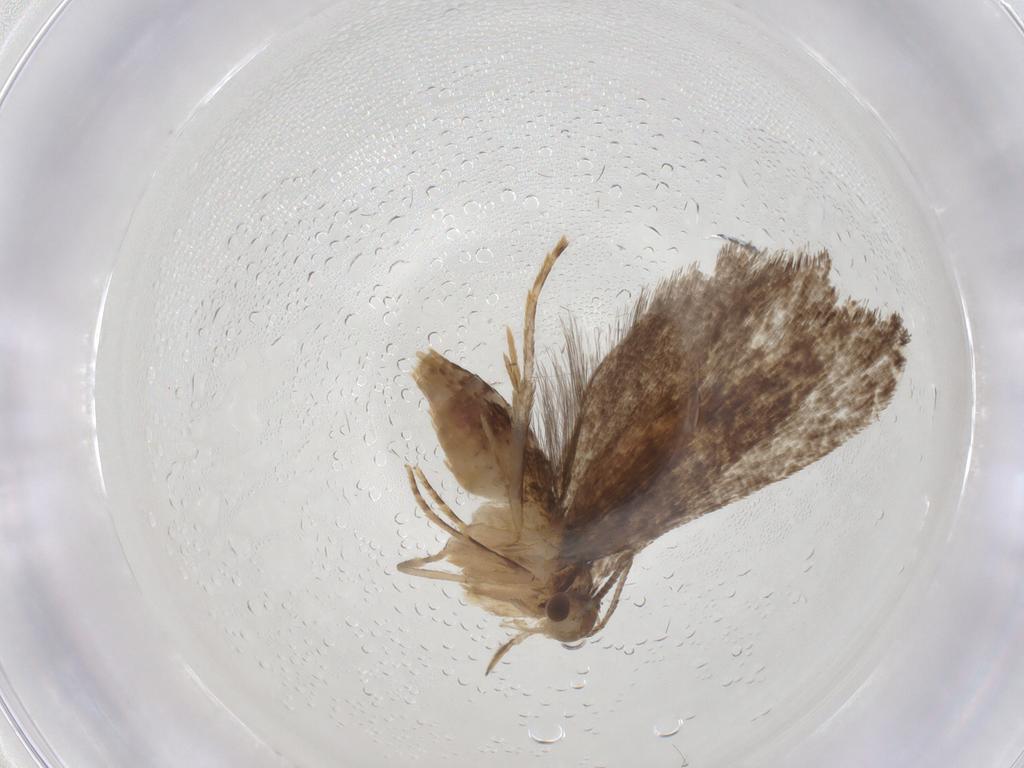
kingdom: Animalia
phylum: Arthropoda
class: Insecta
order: Lepidoptera
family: Tineidae
